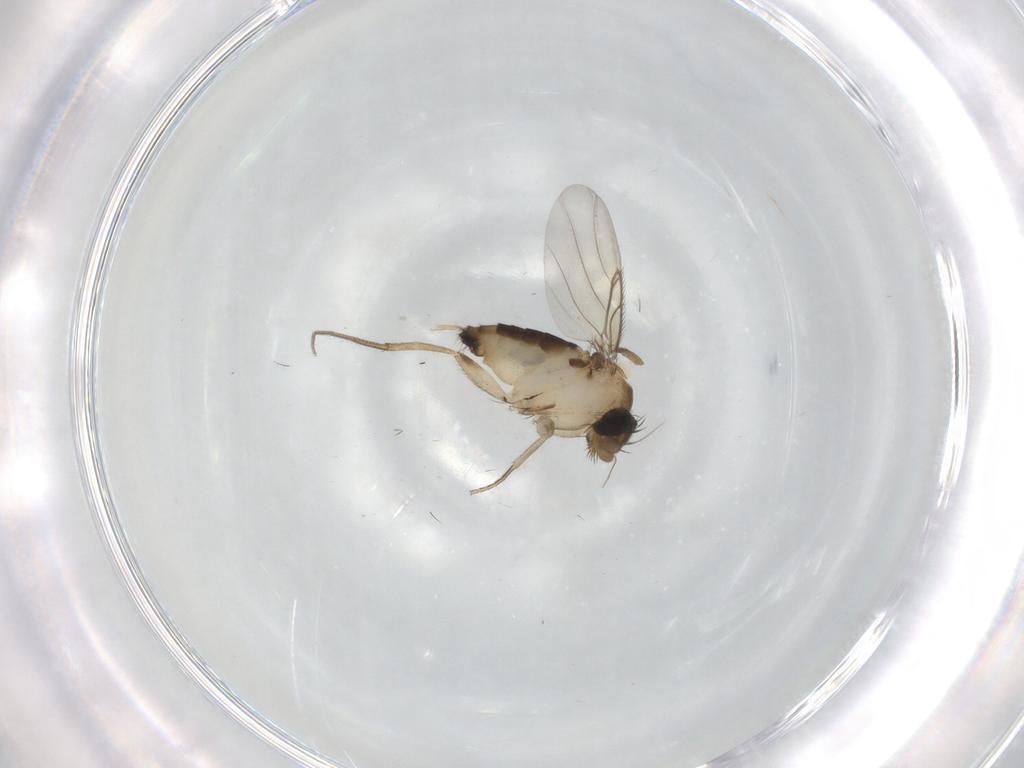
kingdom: Animalia
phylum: Arthropoda
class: Insecta
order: Diptera
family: Phoridae
